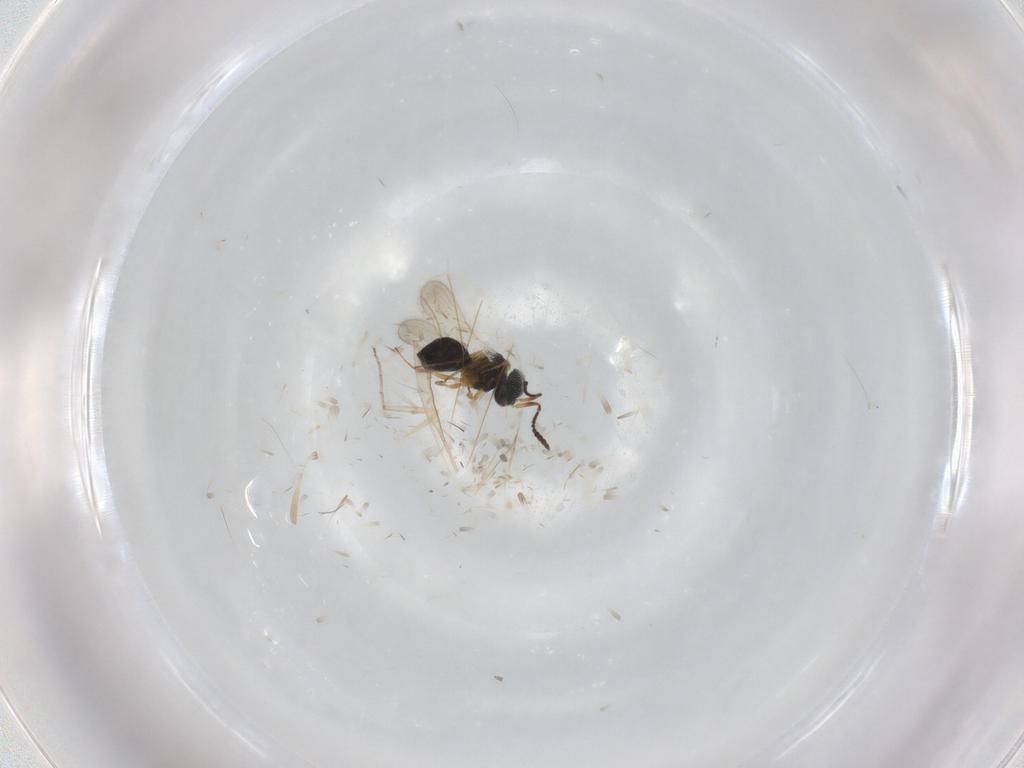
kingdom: Animalia
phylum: Arthropoda
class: Insecta
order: Hymenoptera
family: Scelionidae
